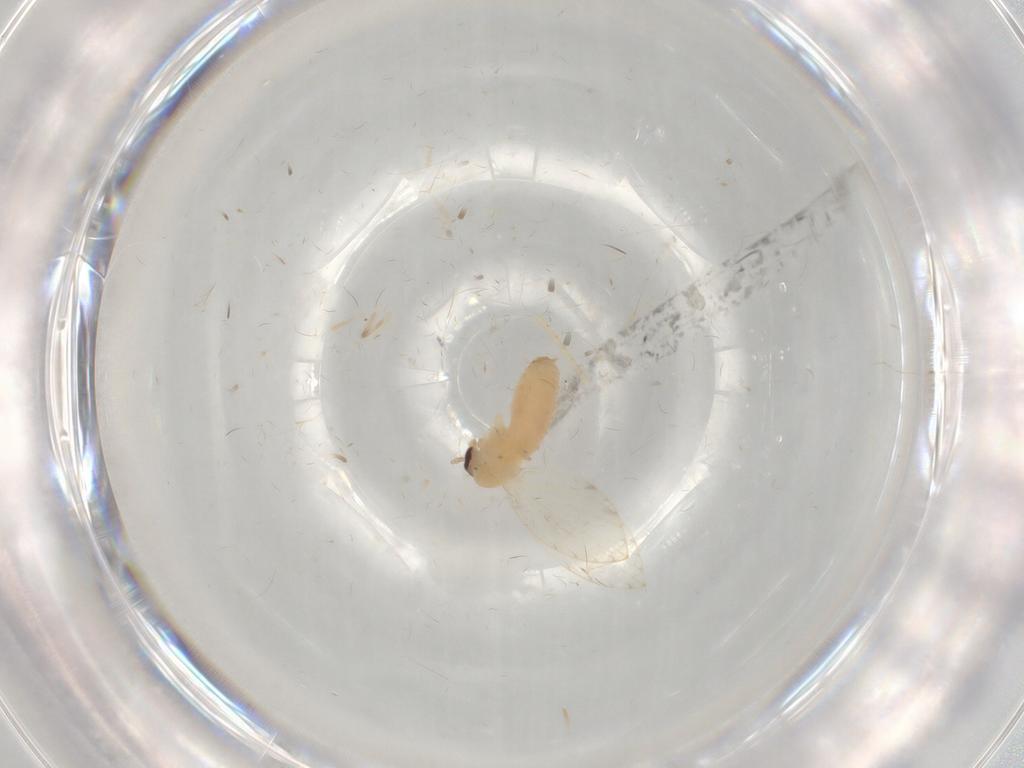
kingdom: Animalia
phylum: Arthropoda
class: Insecta
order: Diptera
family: Psychodidae
